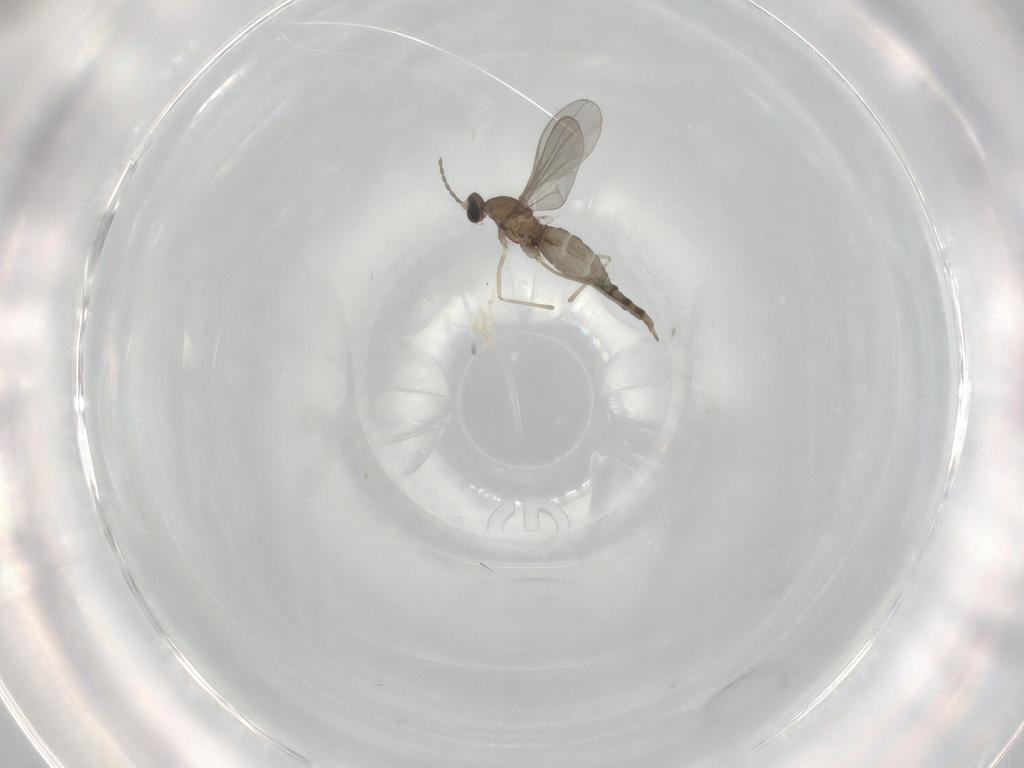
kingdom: Animalia
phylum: Arthropoda
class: Insecta
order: Diptera
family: Cecidomyiidae
